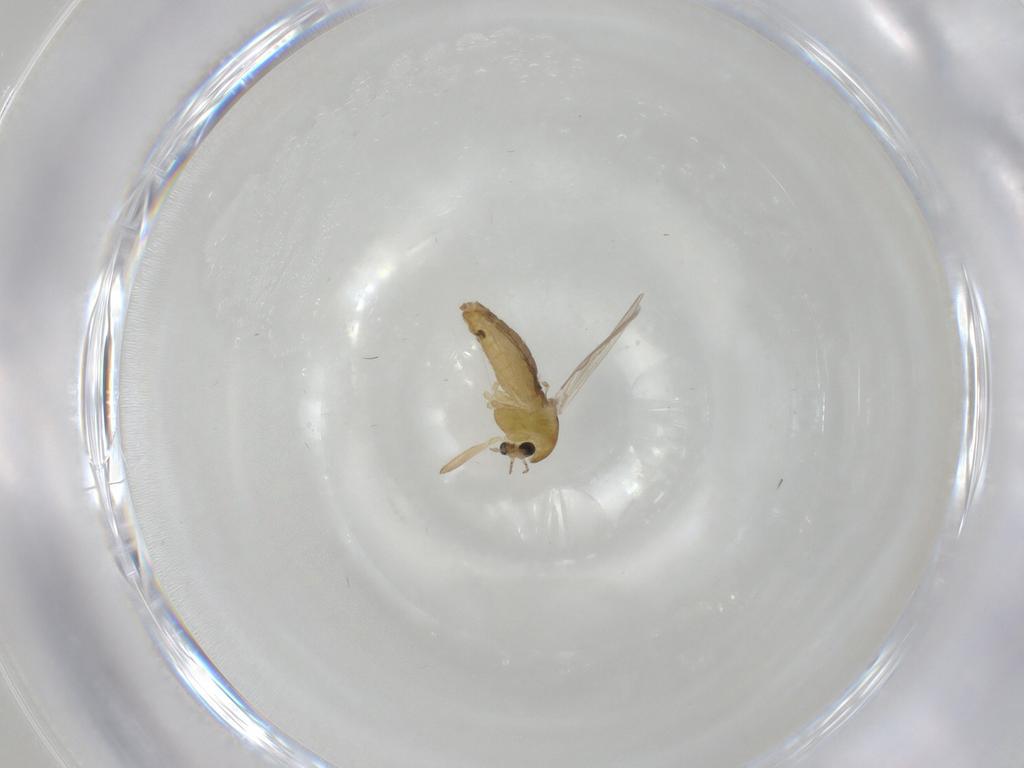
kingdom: Animalia
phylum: Arthropoda
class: Insecta
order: Diptera
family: Chironomidae
